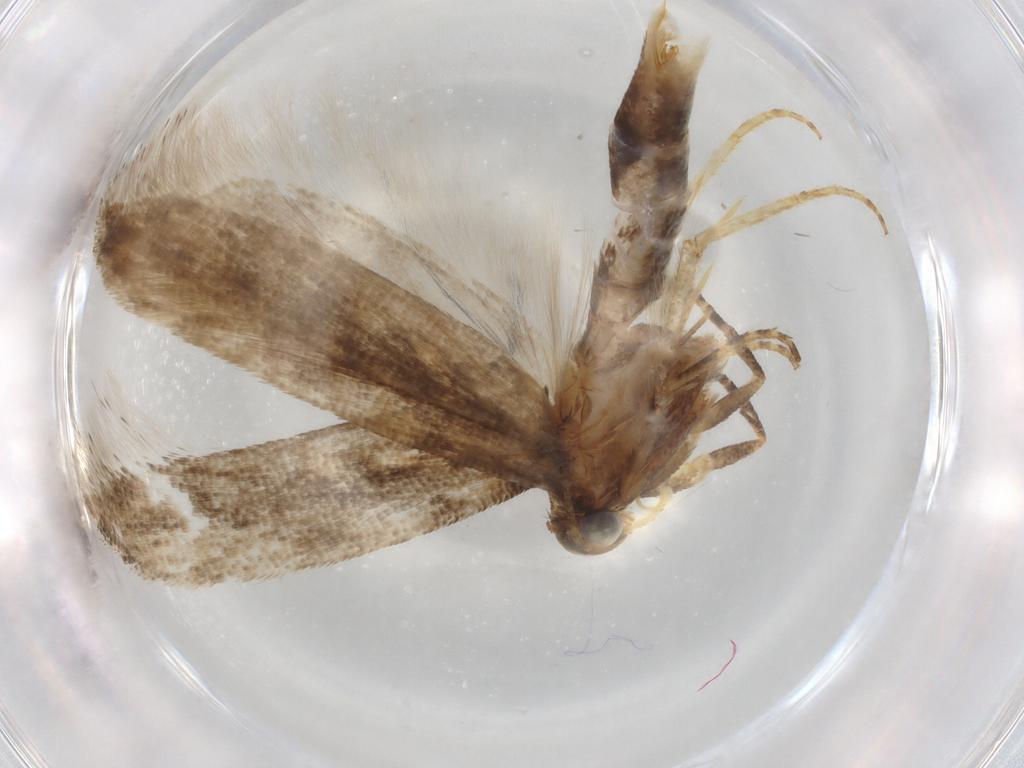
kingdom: Animalia
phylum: Arthropoda
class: Insecta
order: Lepidoptera
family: Gelechiidae
